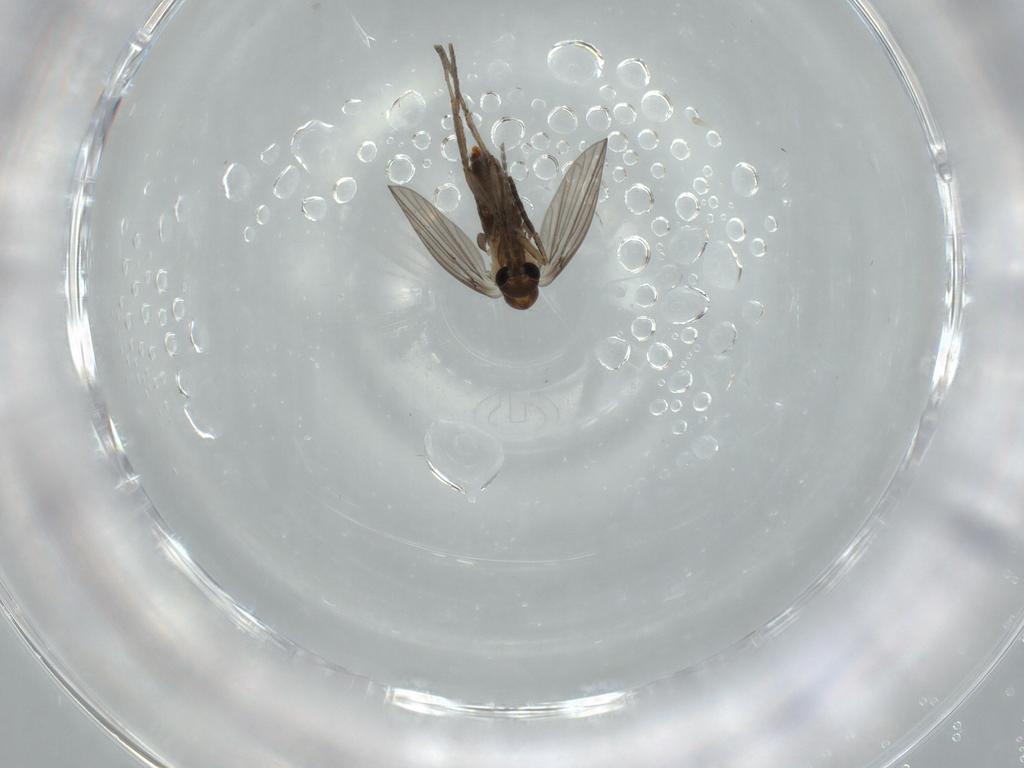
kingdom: Animalia
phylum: Arthropoda
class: Insecta
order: Diptera
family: Psychodidae
